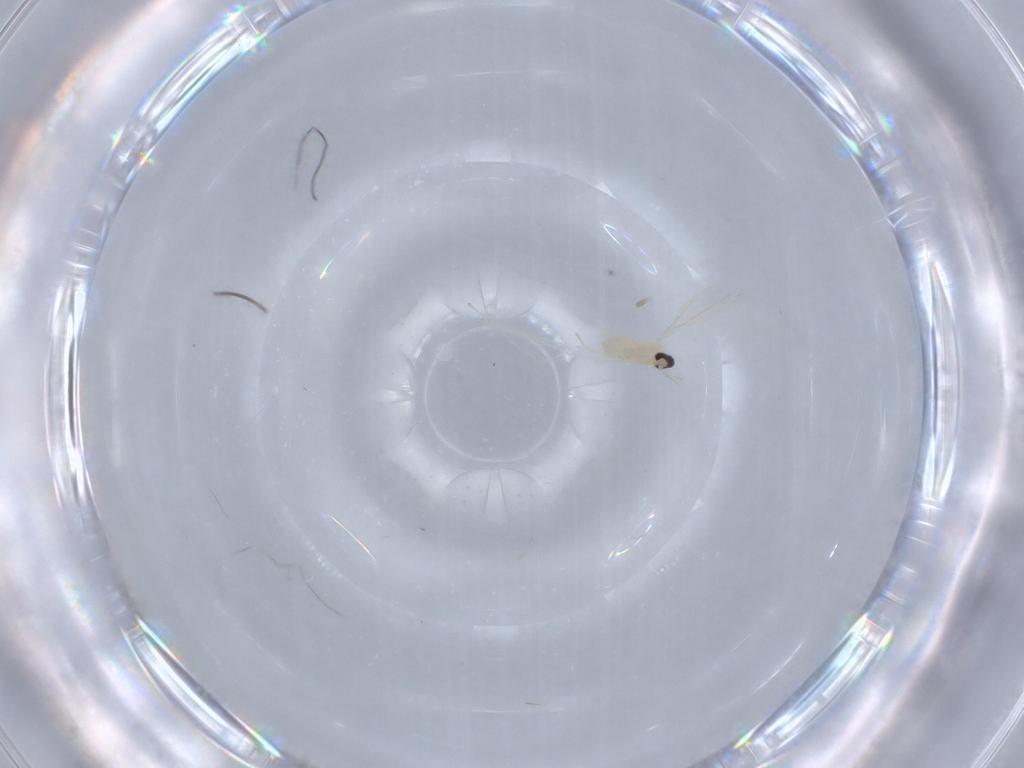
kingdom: Animalia
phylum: Arthropoda
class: Insecta
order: Diptera
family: Cecidomyiidae
